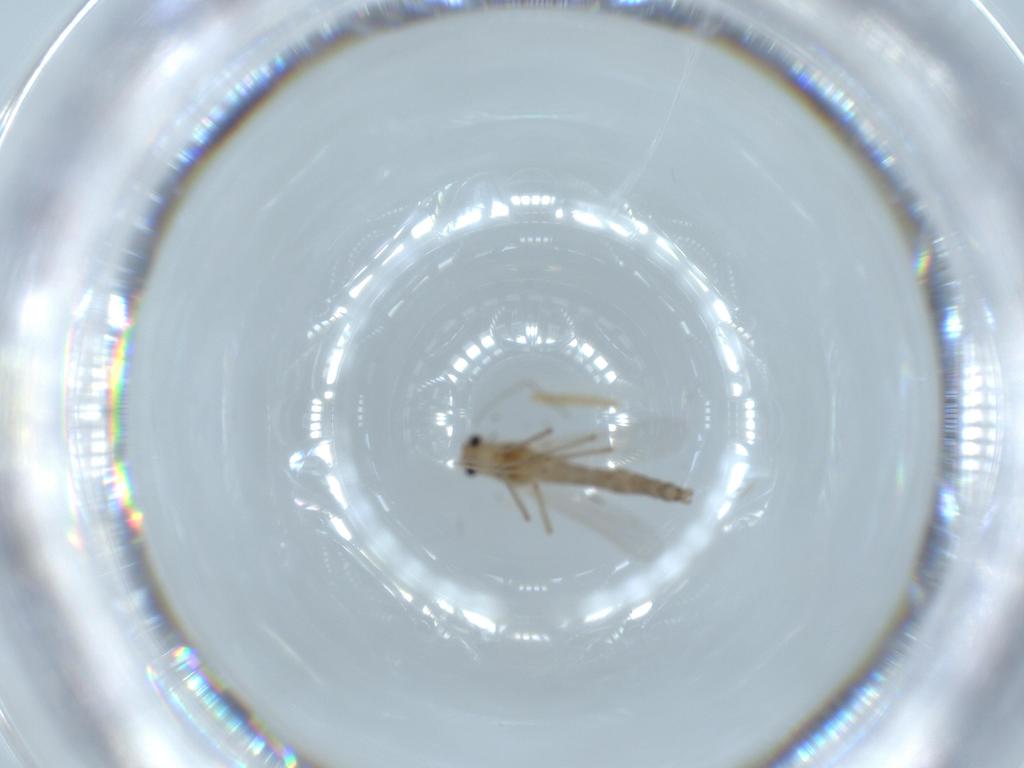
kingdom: Animalia
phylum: Arthropoda
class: Insecta
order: Diptera
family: Chironomidae
